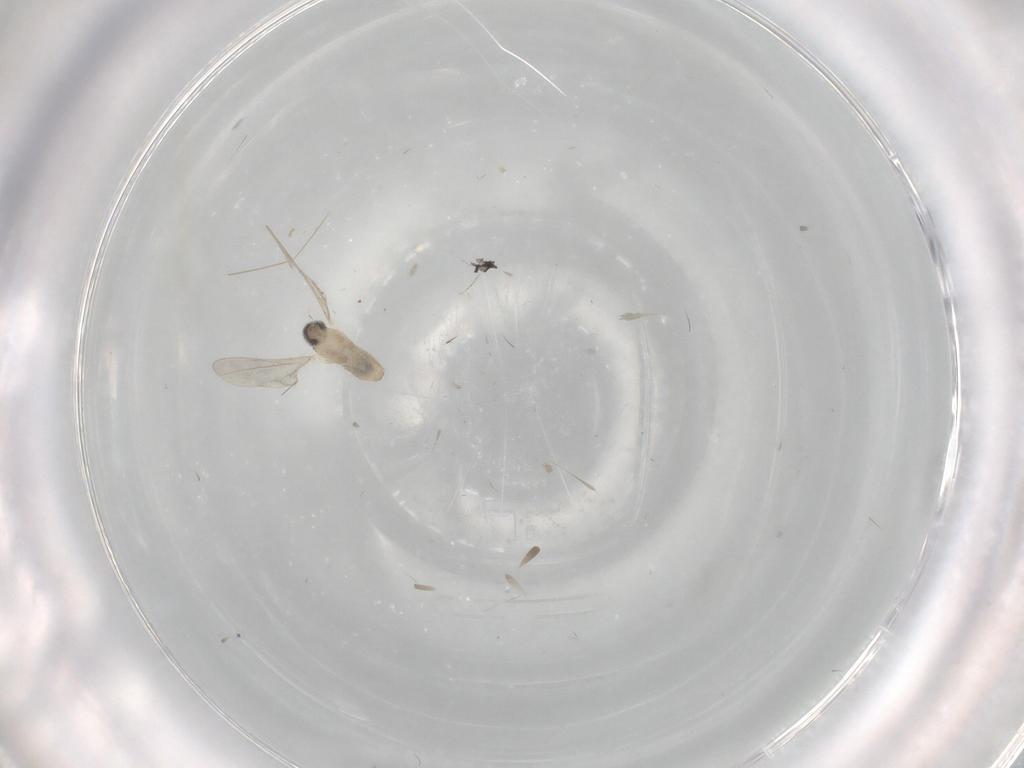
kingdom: Animalia
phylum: Arthropoda
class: Insecta
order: Diptera
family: Cecidomyiidae
